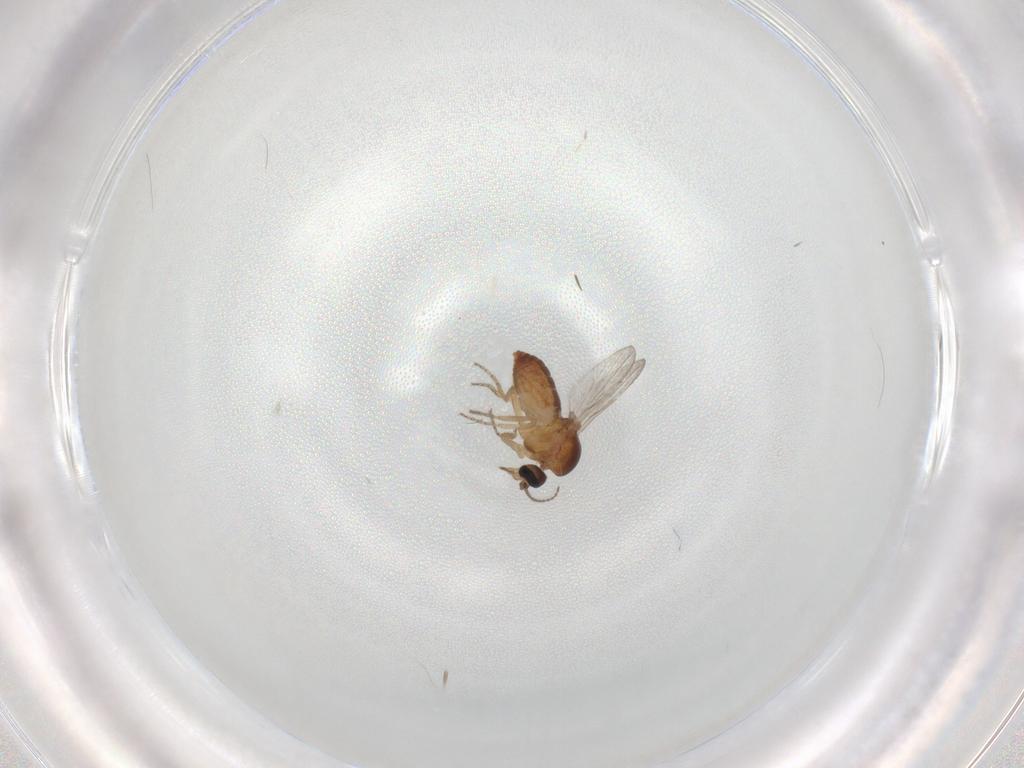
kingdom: Animalia
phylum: Arthropoda
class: Insecta
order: Diptera
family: Ceratopogonidae
